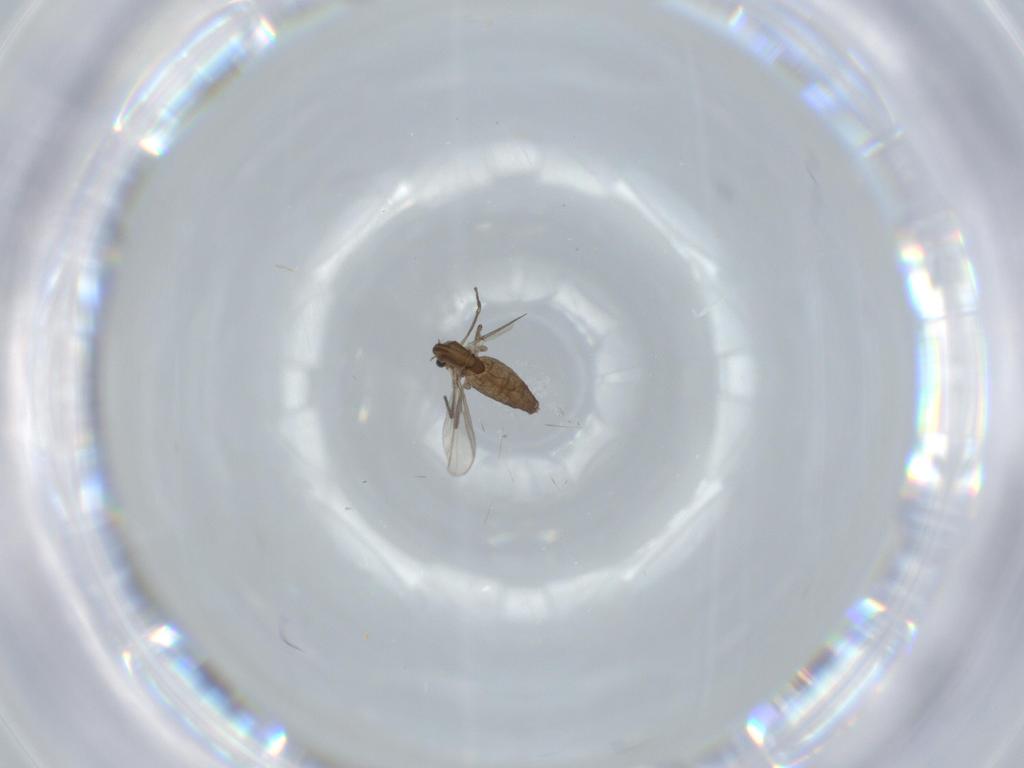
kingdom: Animalia
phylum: Arthropoda
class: Insecta
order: Diptera
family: Chironomidae
